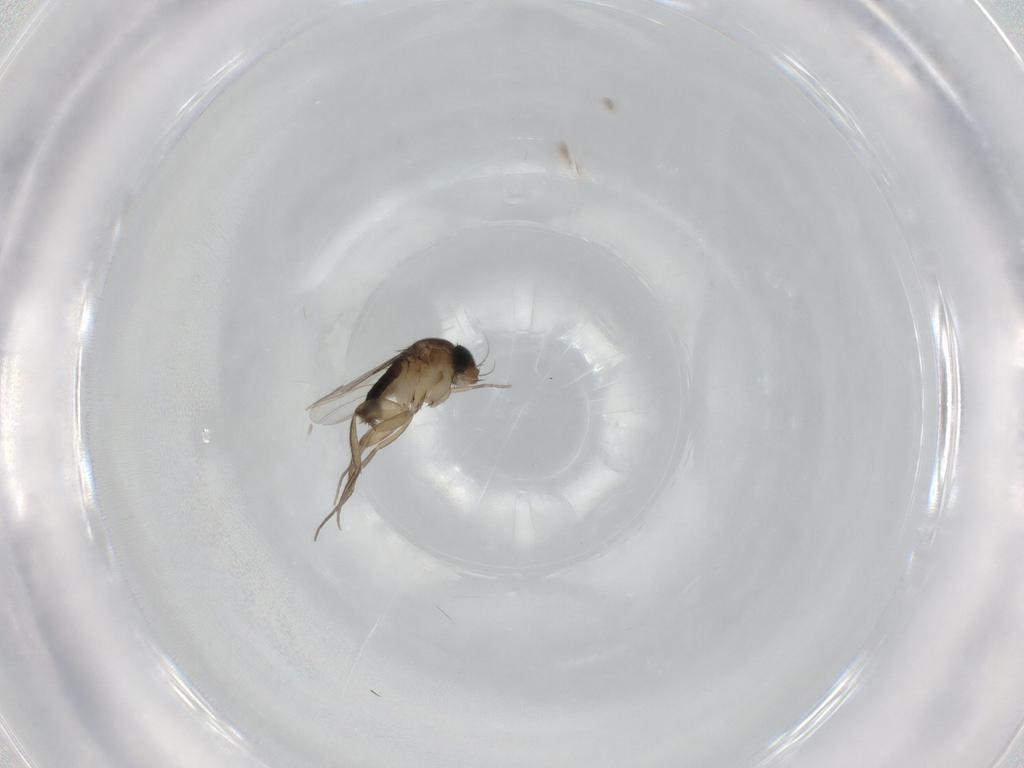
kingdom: Animalia
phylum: Arthropoda
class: Insecta
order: Diptera
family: Phoridae
